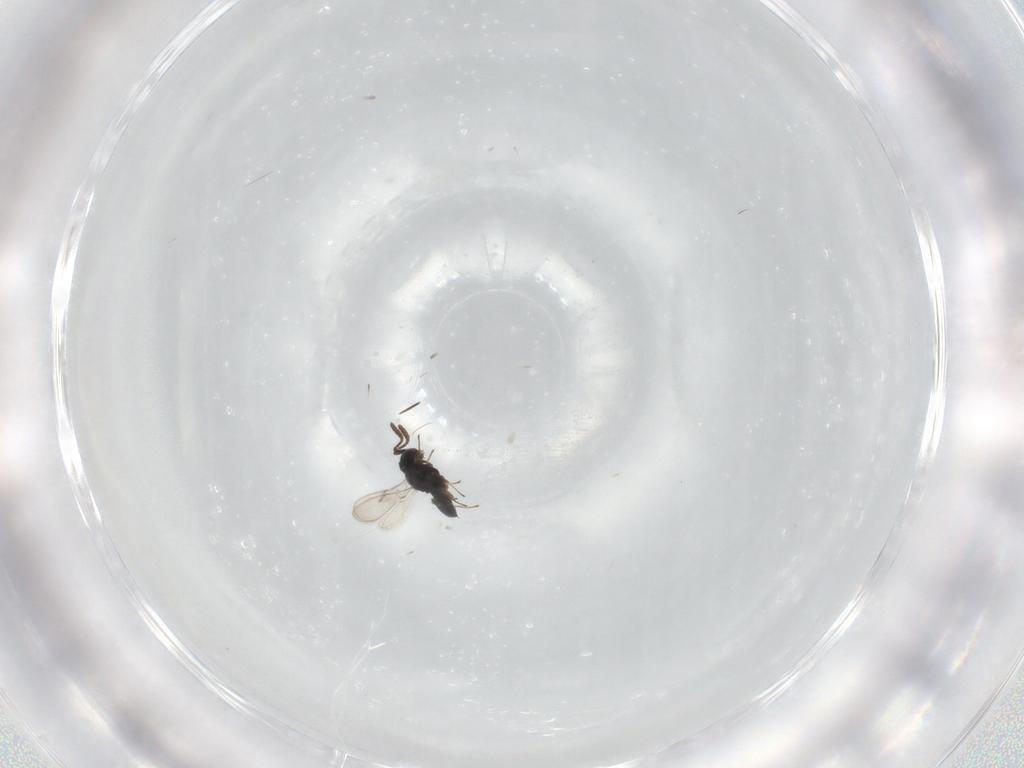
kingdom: Animalia
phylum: Arthropoda
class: Insecta
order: Hymenoptera
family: Scelionidae
